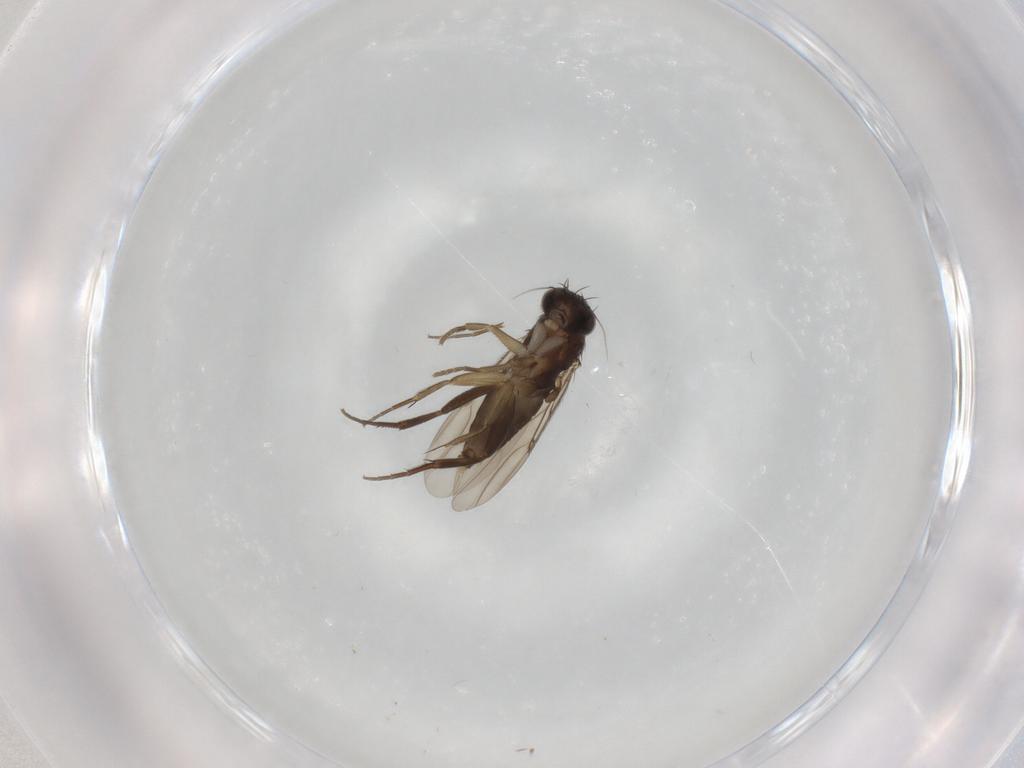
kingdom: Animalia
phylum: Arthropoda
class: Insecta
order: Diptera
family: Phoridae
